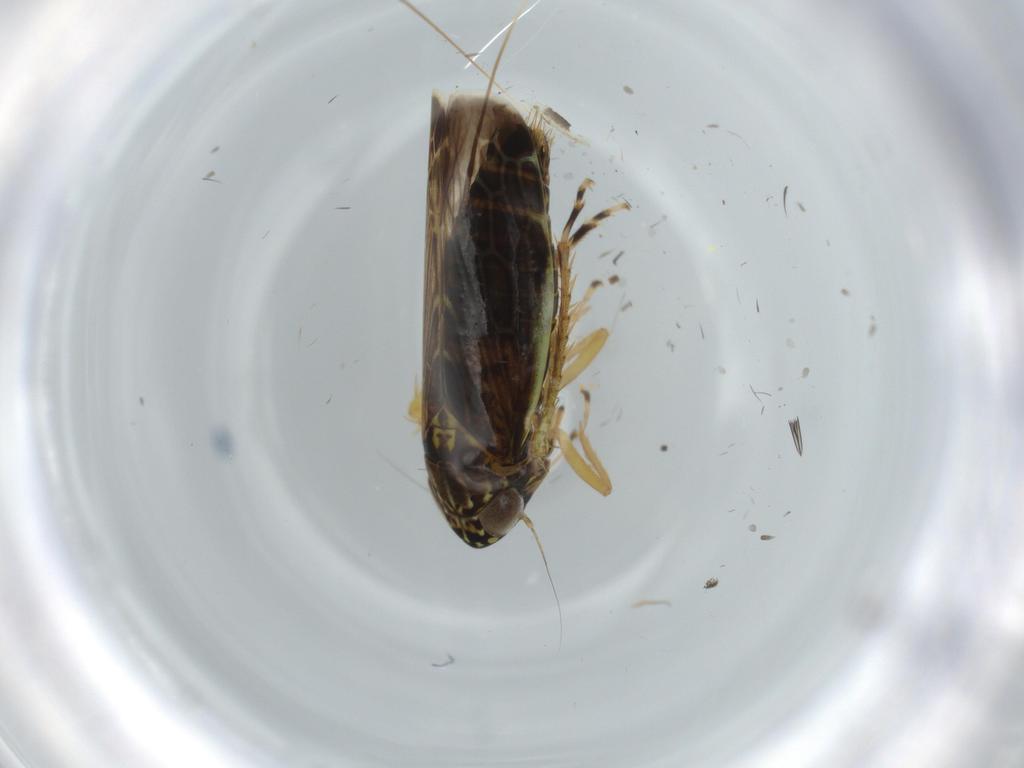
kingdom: Animalia
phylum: Arthropoda
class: Insecta
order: Hemiptera
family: Cicadellidae
